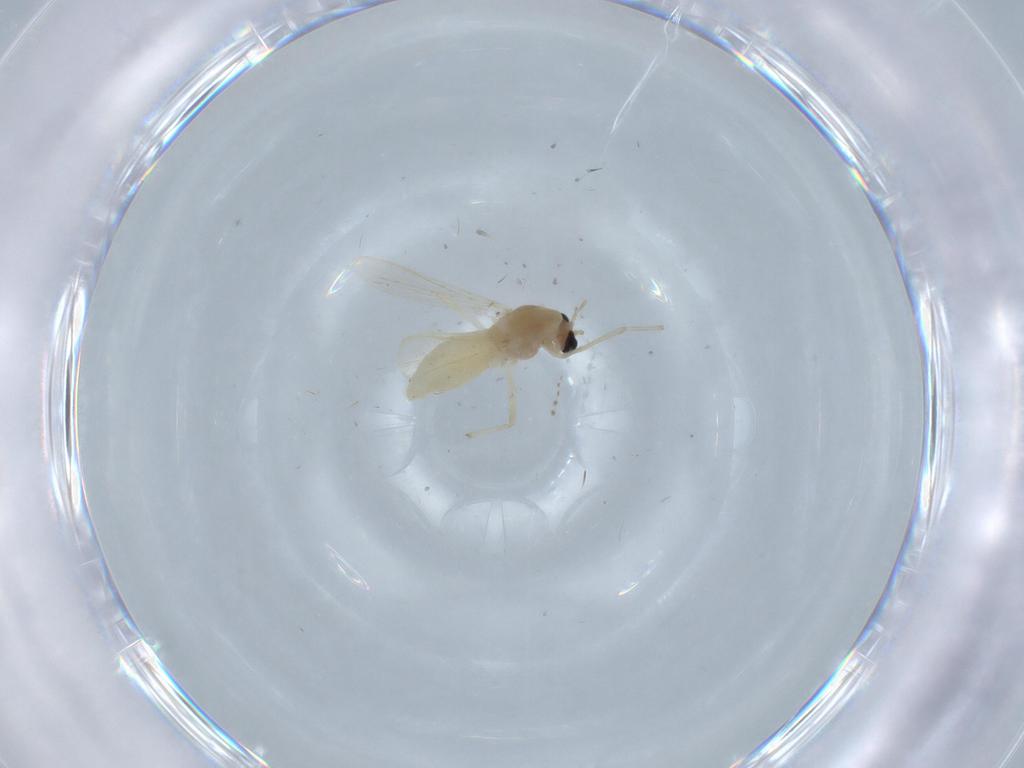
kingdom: Animalia
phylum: Arthropoda
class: Insecta
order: Diptera
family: Chironomidae
